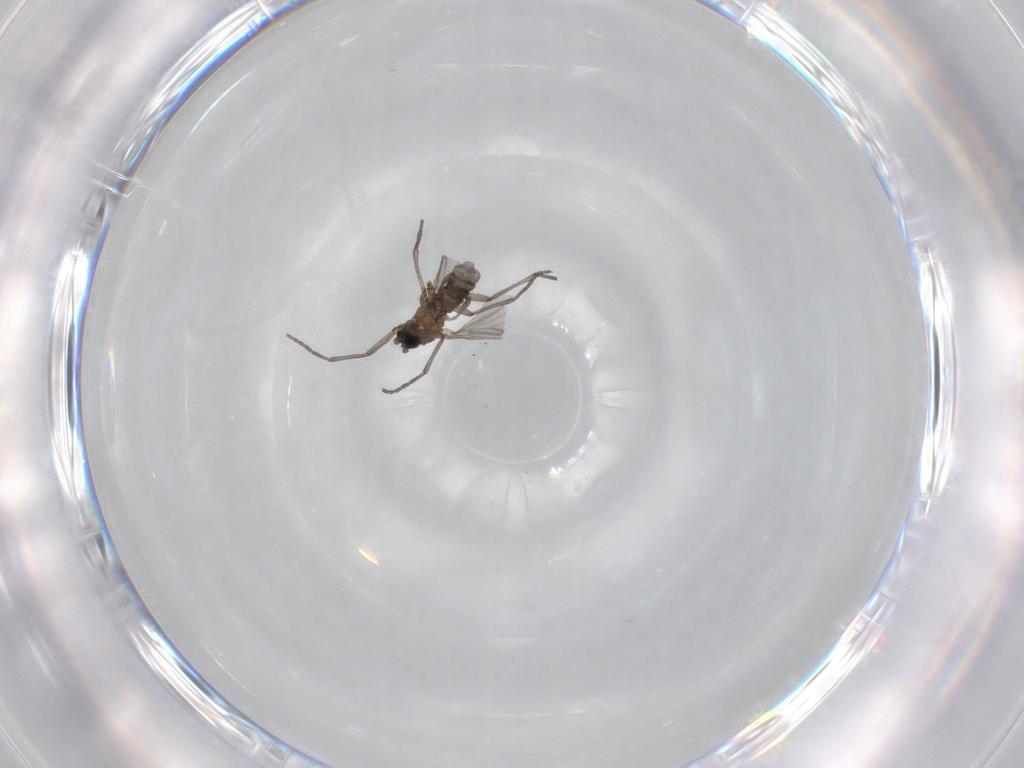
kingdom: Animalia
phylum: Arthropoda
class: Insecta
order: Diptera
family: Sciaridae
